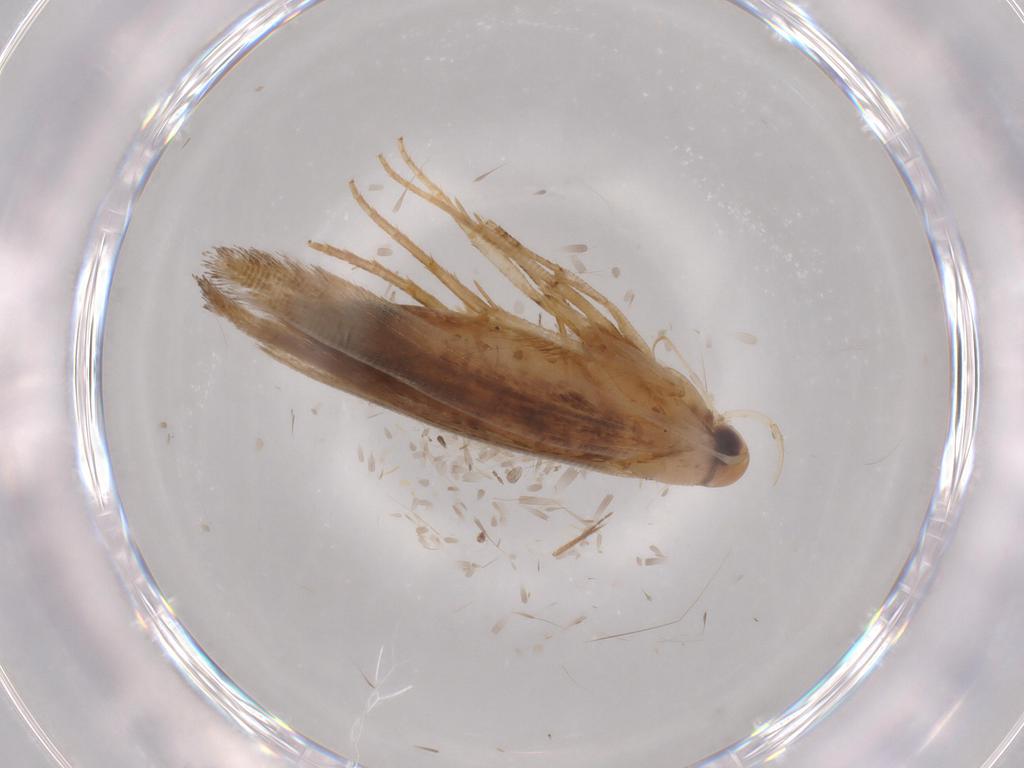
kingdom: Animalia
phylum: Arthropoda
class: Insecta
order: Lepidoptera
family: Cosmopterigidae
